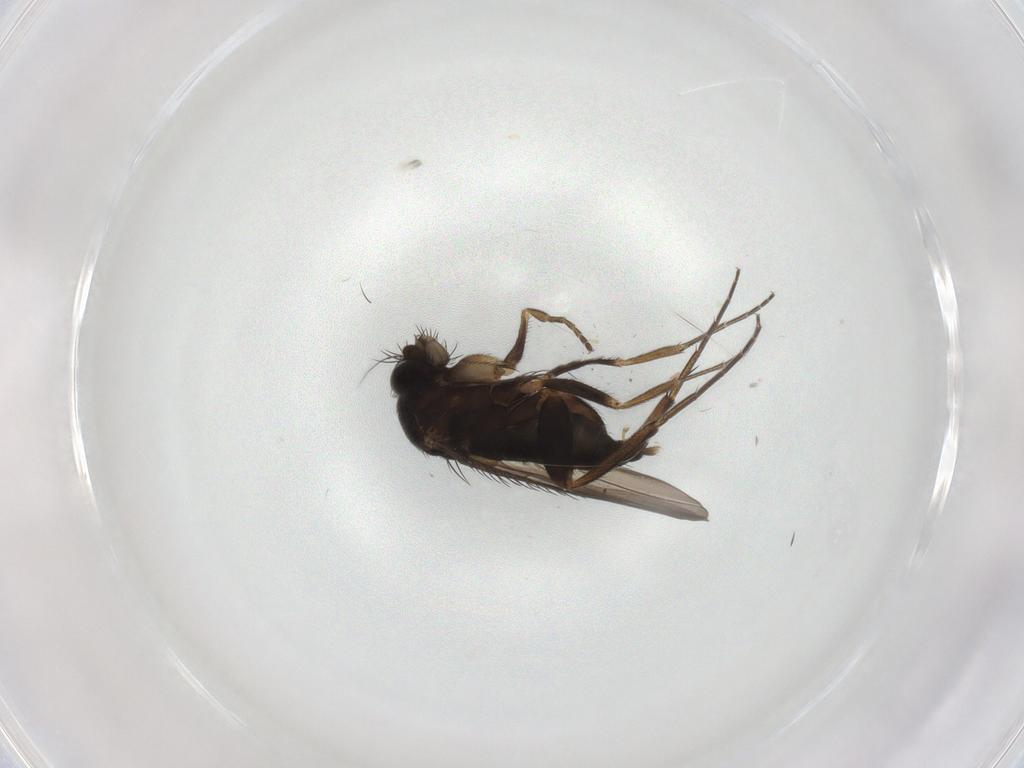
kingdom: Animalia
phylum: Arthropoda
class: Insecta
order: Diptera
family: Phoridae
